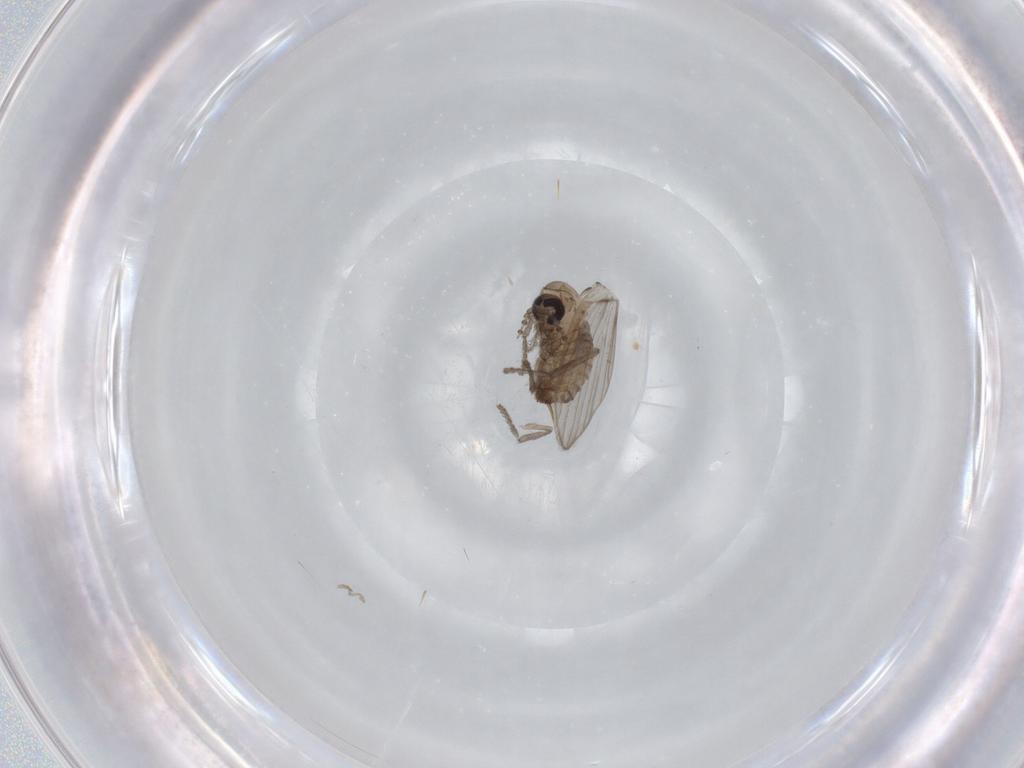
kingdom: Animalia
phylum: Arthropoda
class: Insecta
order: Diptera
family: Psychodidae
